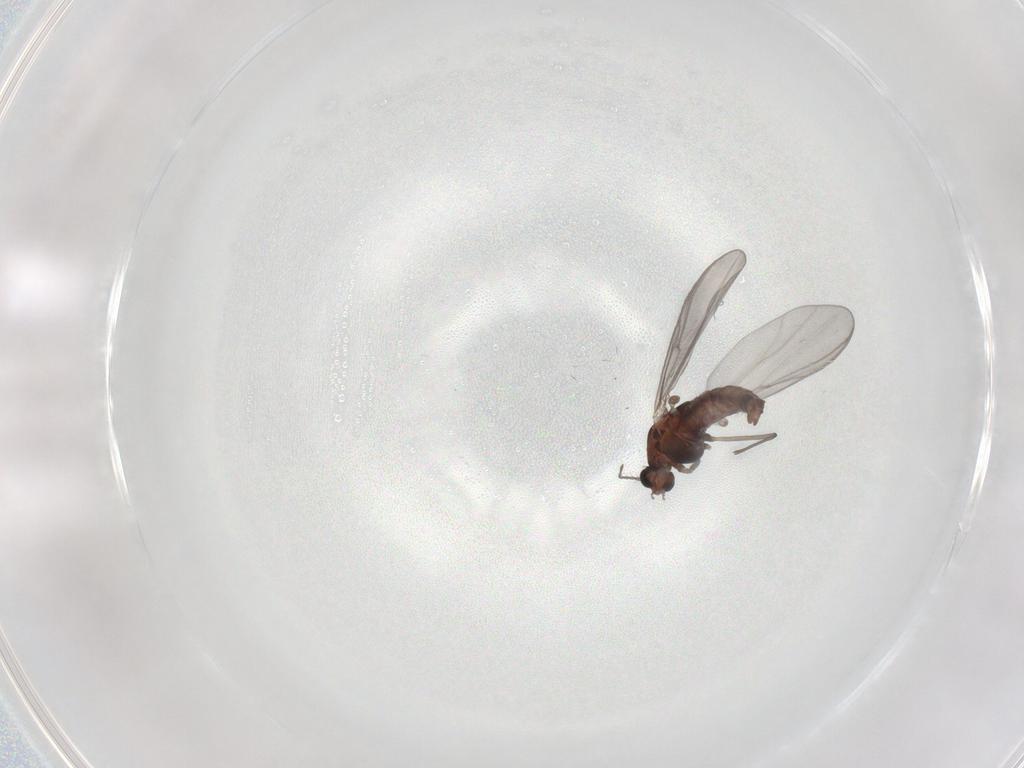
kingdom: Animalia
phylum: Arthropoda
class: Insecta
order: Diptera
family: Chironomidae
